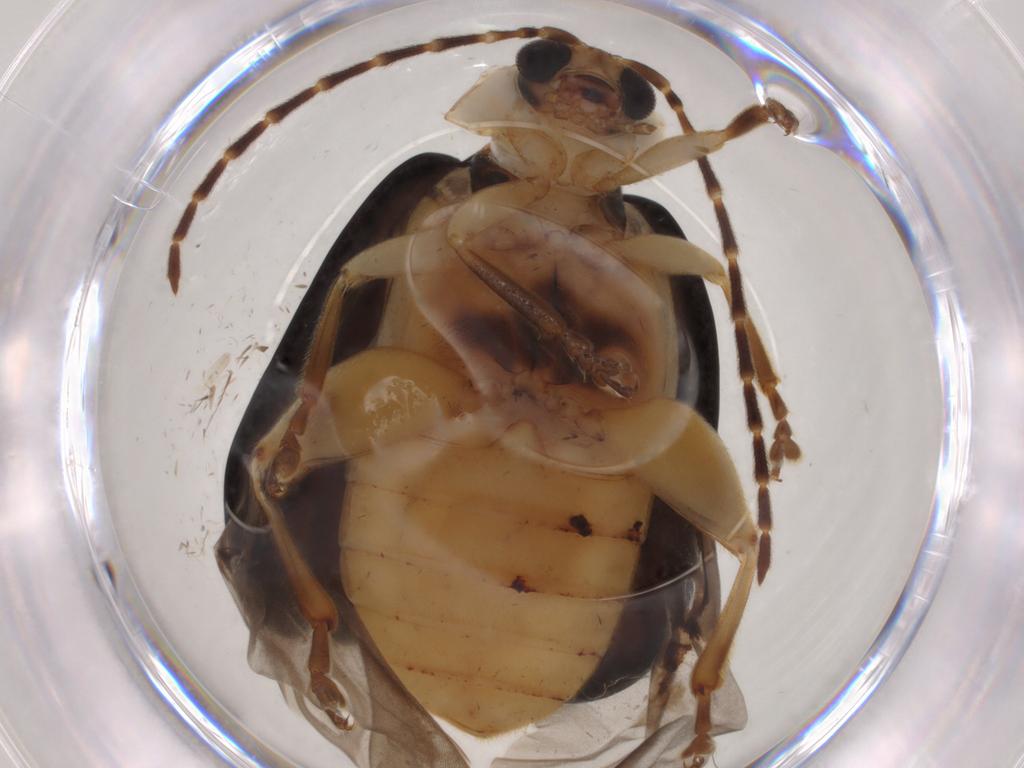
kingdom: Animalia
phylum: Arthropoda
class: Insecta
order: Coleoptera
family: Chrysomelidae
